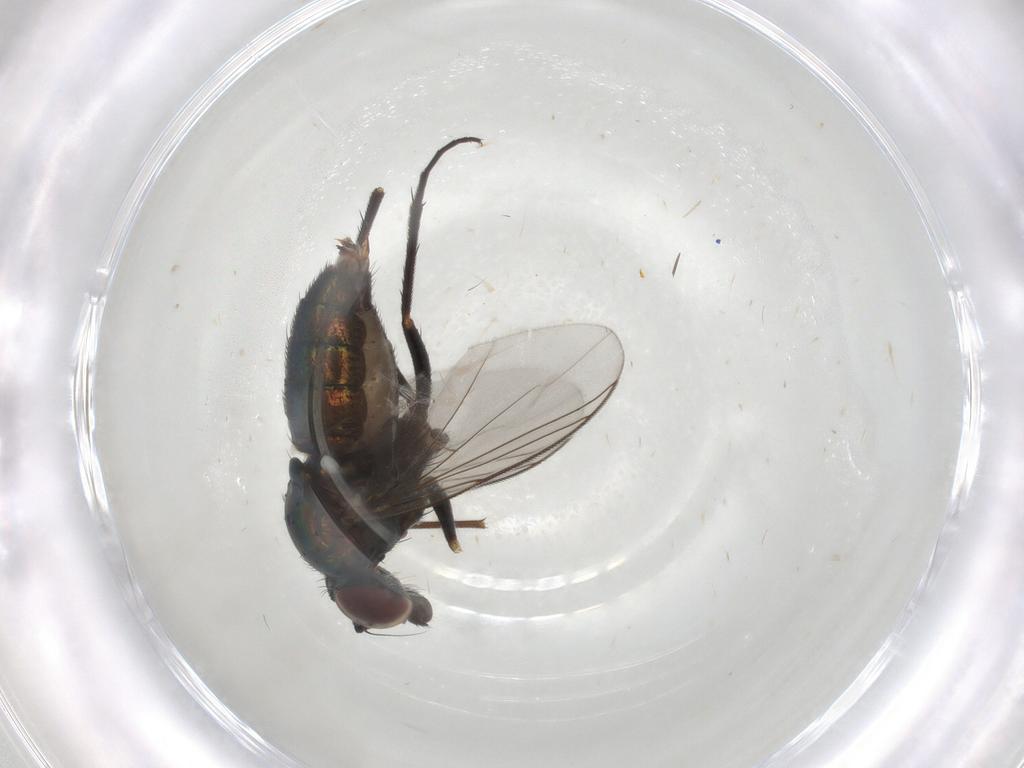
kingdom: Animalia
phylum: Arthropoda
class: Insecta
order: Diptera
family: Dolichopodidae
